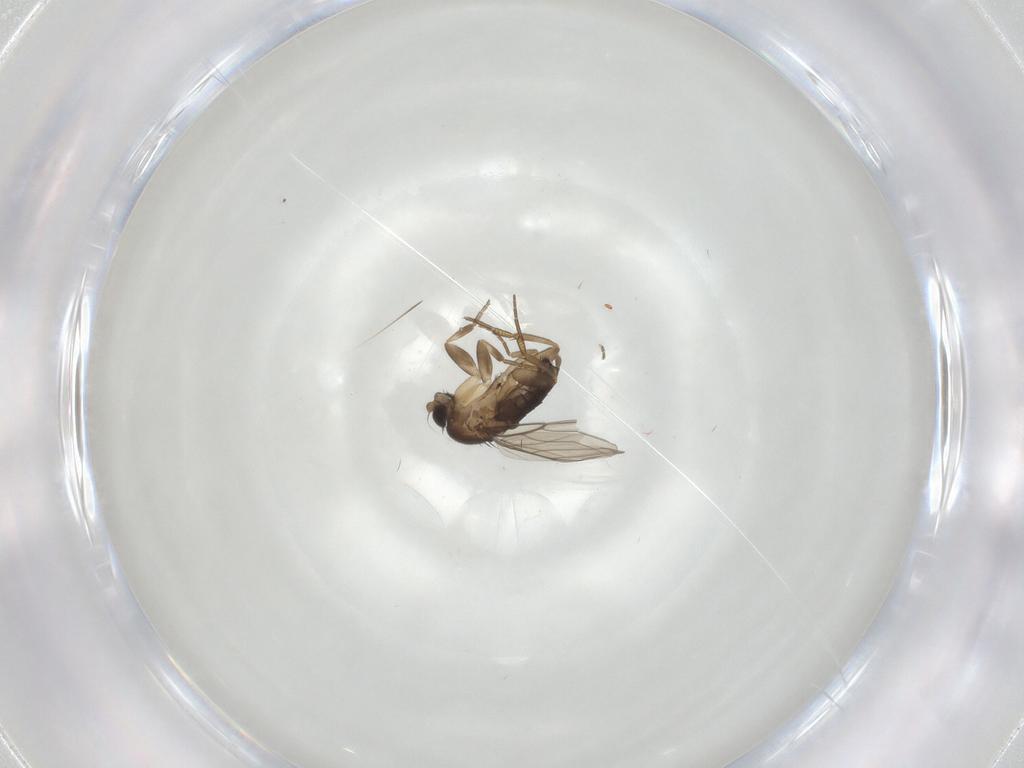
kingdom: Animalia
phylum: Arthropoda
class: Insecta
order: Diptera
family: Phoridae
